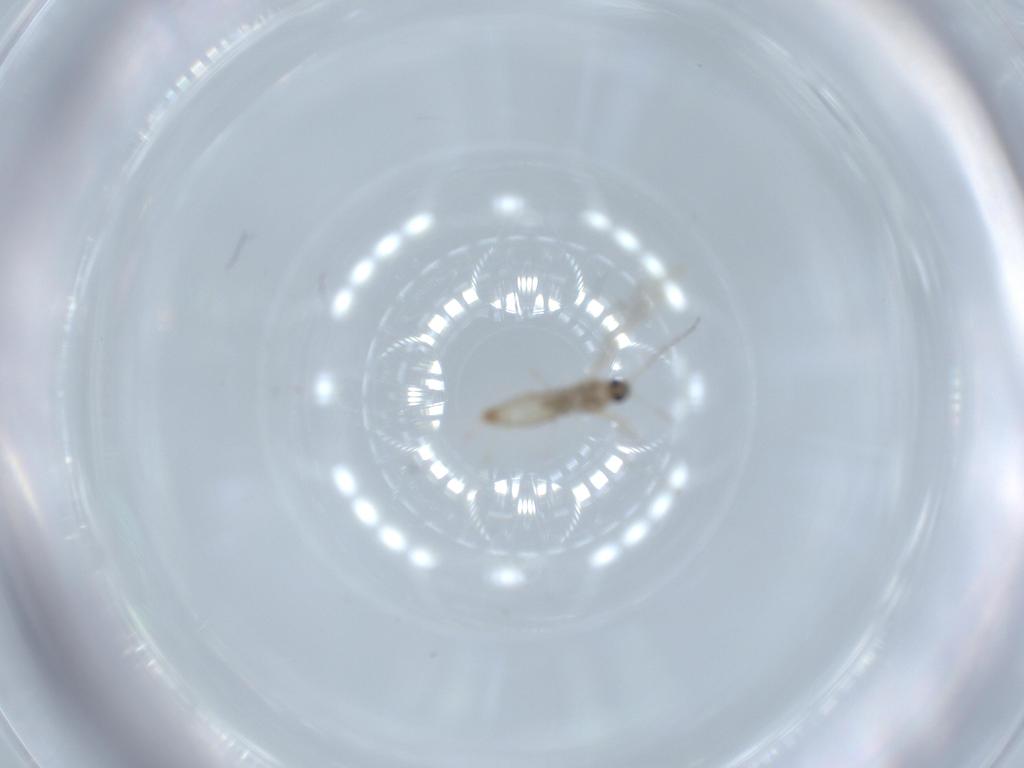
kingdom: Animalia
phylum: Arthropoda
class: Insecta
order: Diptera
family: Cecidomyiidae
